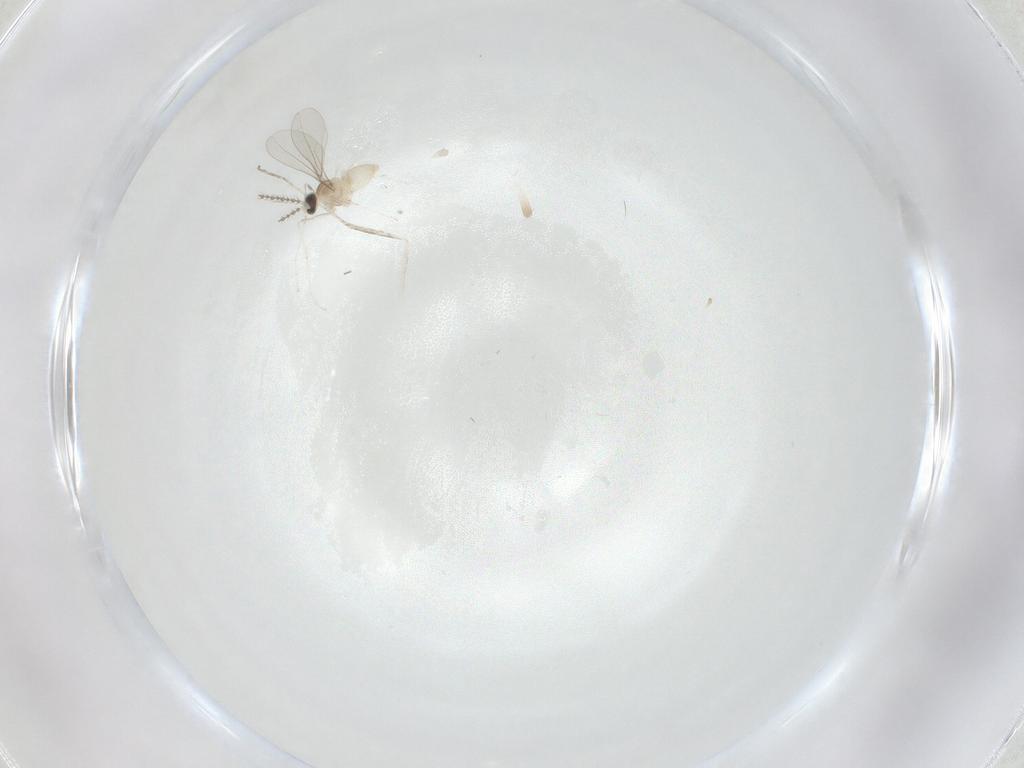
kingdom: Animalia
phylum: Arthropoda
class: Insecta
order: Diptera
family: Cecidomyiidae
